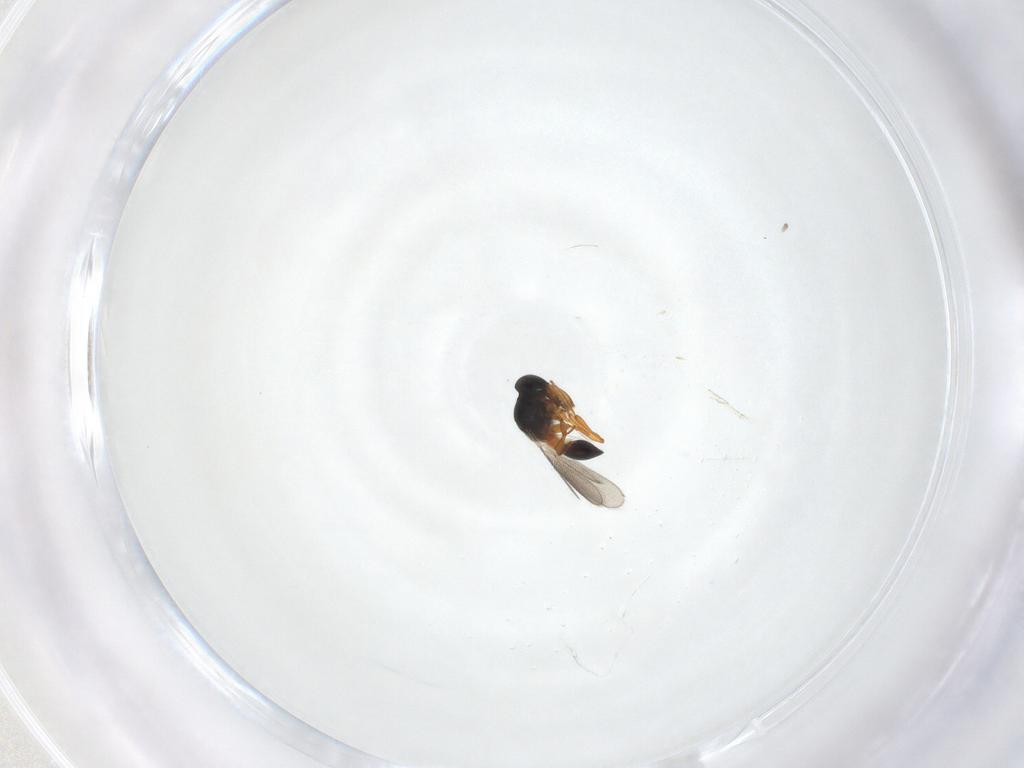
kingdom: Animalia
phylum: Arthropoda
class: Insecta
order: Hymenoptera
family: Platygastridae
